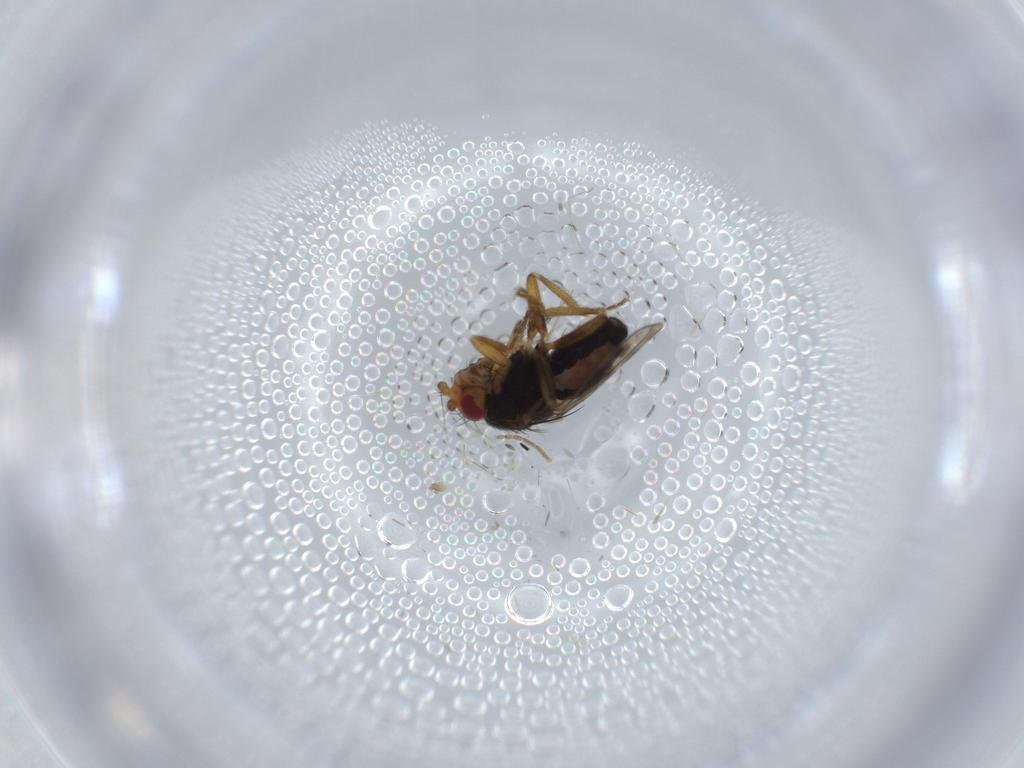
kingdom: Animalia
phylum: Arthropoda
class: Insecta
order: Diptera
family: Sphaeroceridae
